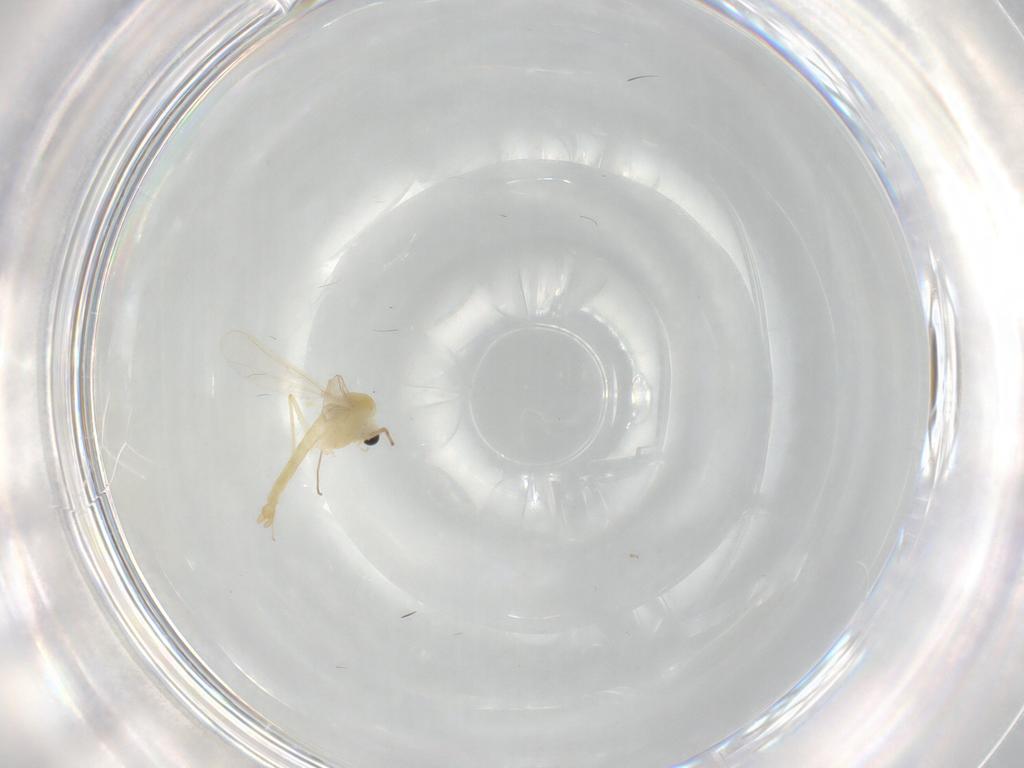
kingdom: Animalia
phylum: Arthropoda
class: Insecta
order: Diptera
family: Chironomidae
